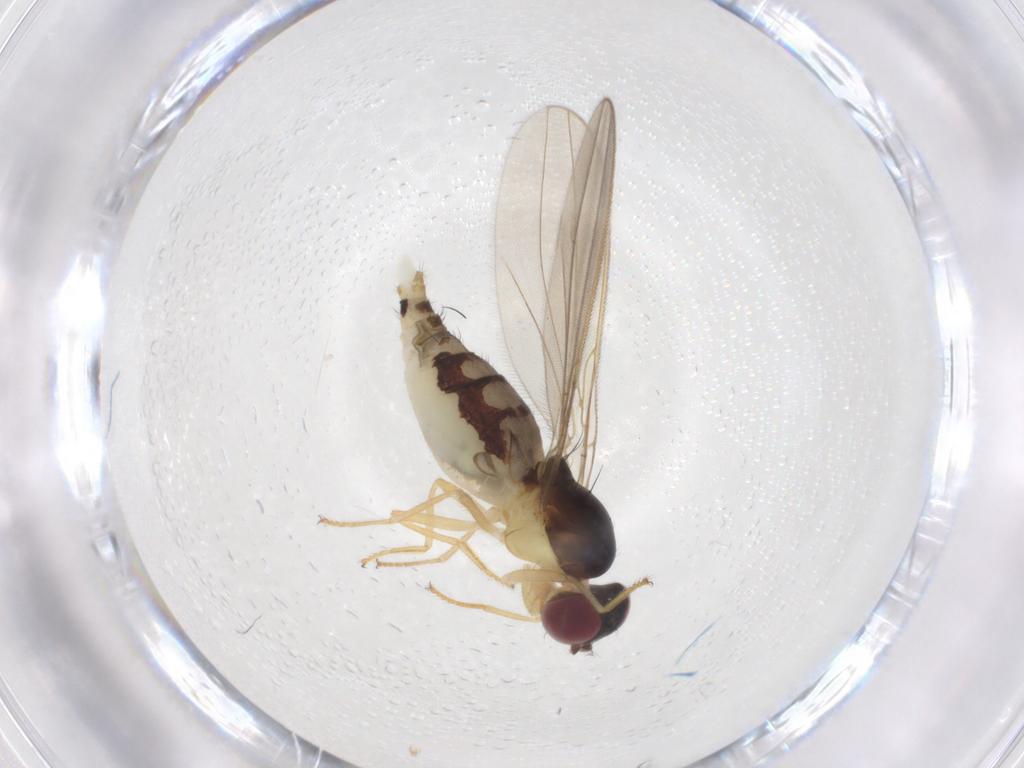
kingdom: Animalia
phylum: Arthropoda
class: Insecta
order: Diptera
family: Asteiidae
